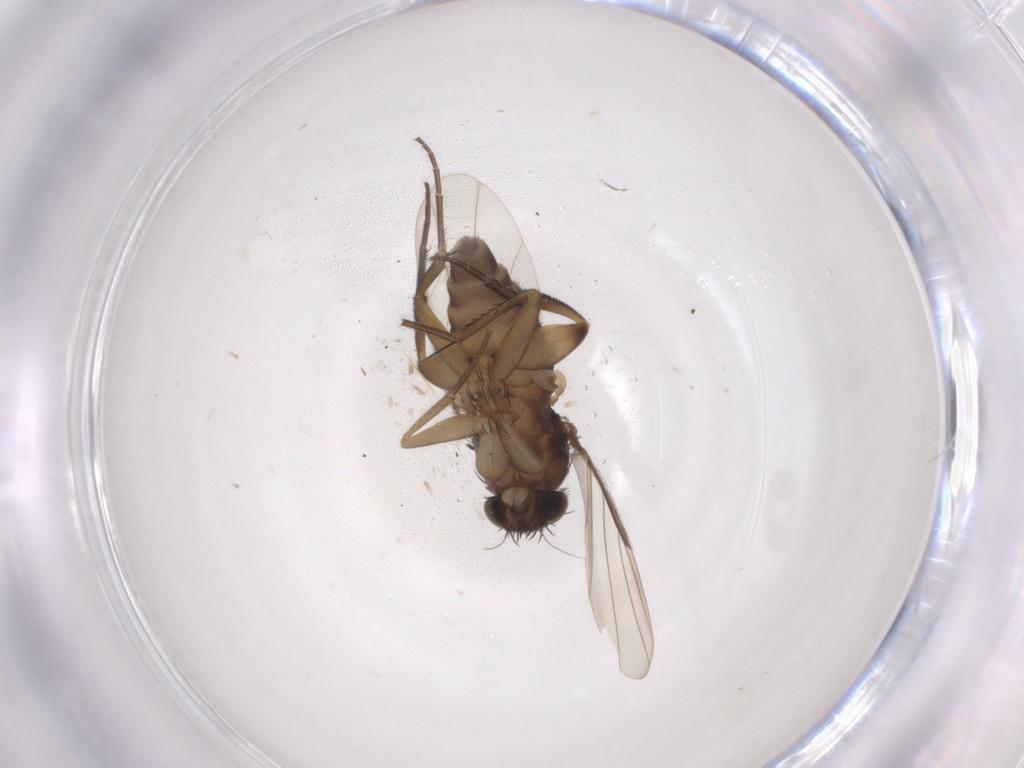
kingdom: Animalia
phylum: Arthropoda
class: Insecta
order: Diptera
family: Phoridae
